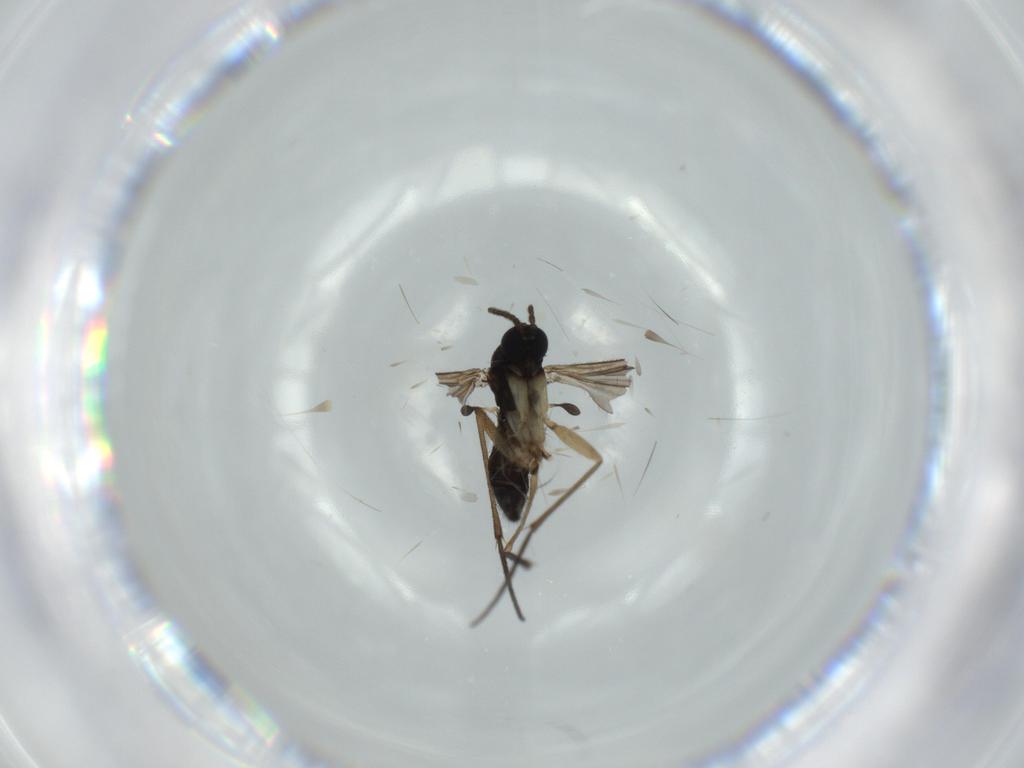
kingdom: Animalia
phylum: Arthropoda
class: Insecta
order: Diptera
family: Sciaridae
